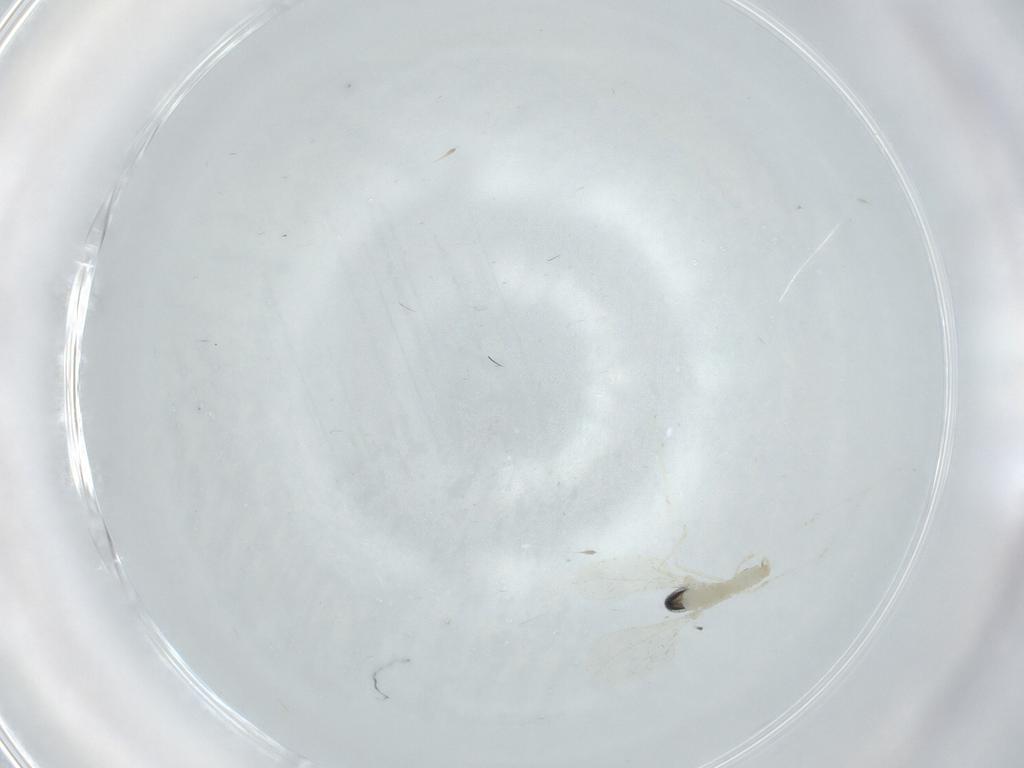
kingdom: Animalia
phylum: Arthropoda
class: Insecta
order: Diptera
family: Cecidomyiidae
